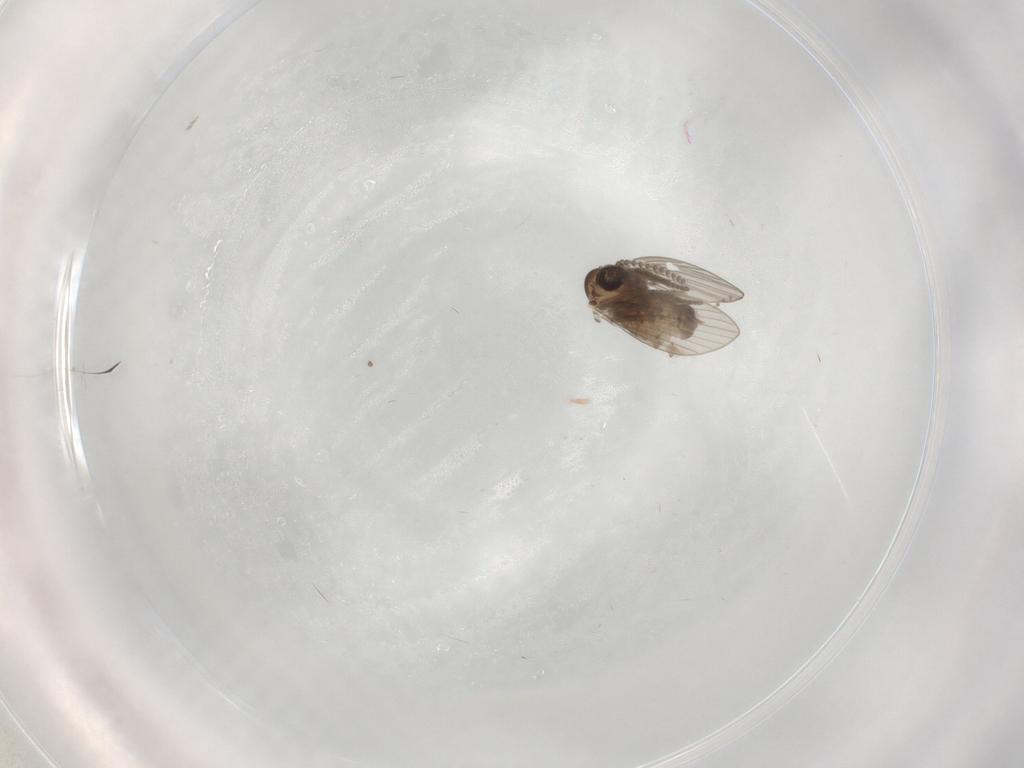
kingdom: Animalia
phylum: Arthropoda
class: Insecta
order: Diptera
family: Psychodidae
